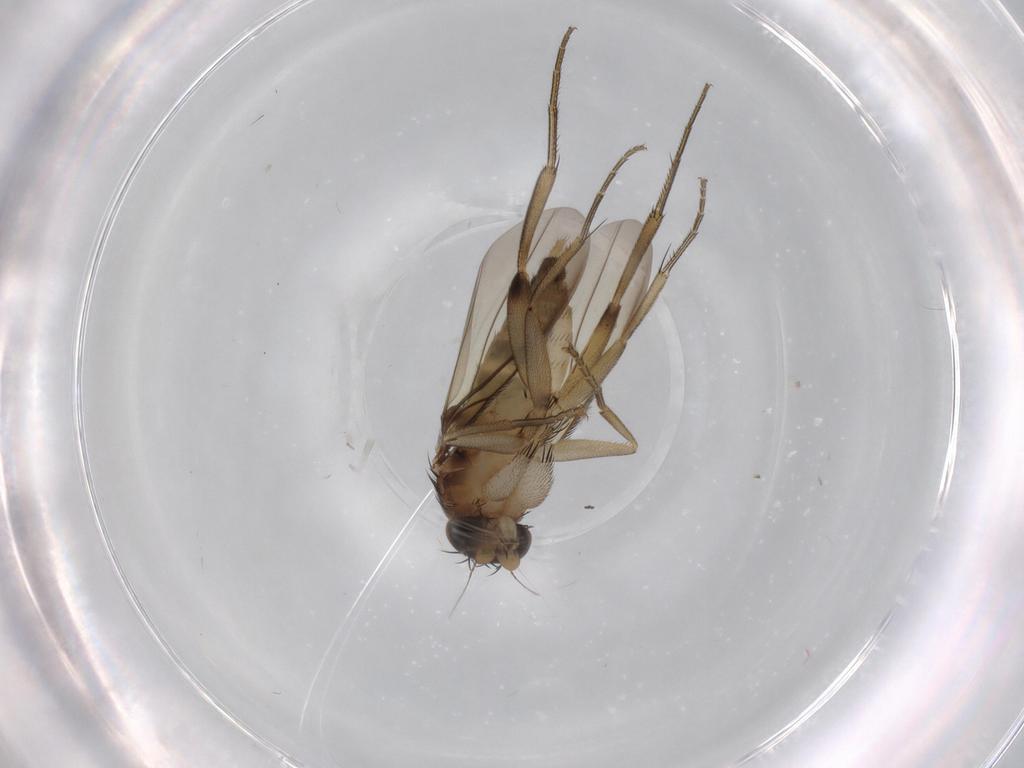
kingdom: Animalia
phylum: Arthropoda
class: Insecta
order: Diptera
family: Phoridae
